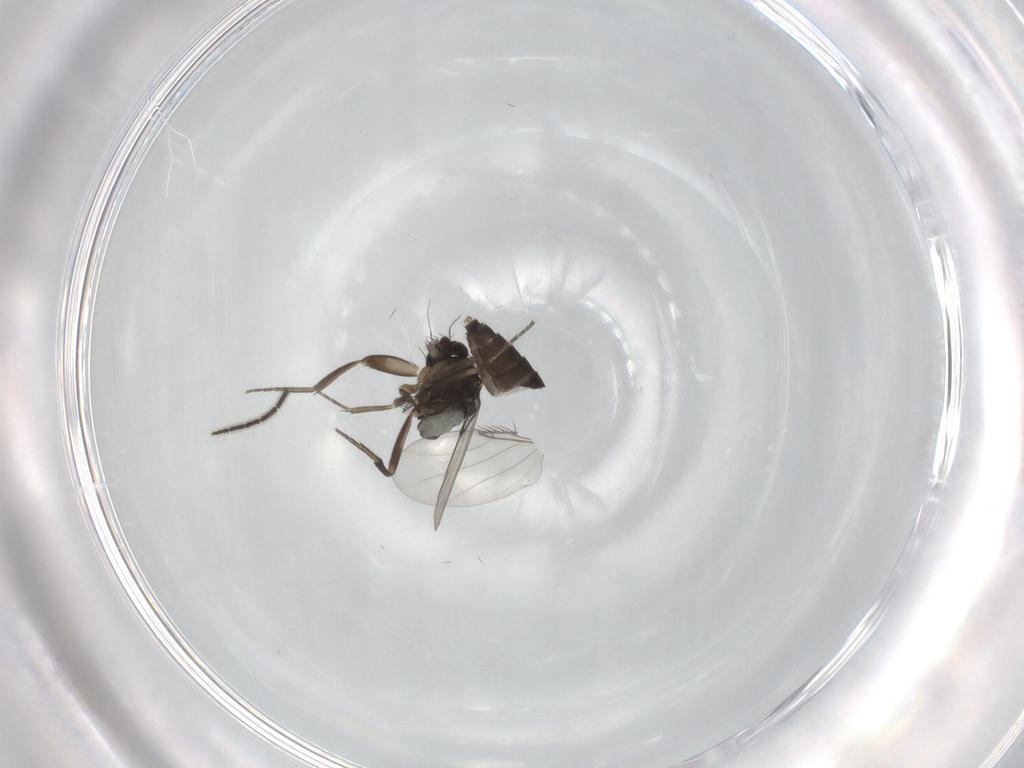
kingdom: Animalia
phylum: Arthropoda
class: Insecta
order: Diptera
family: Phoridae
